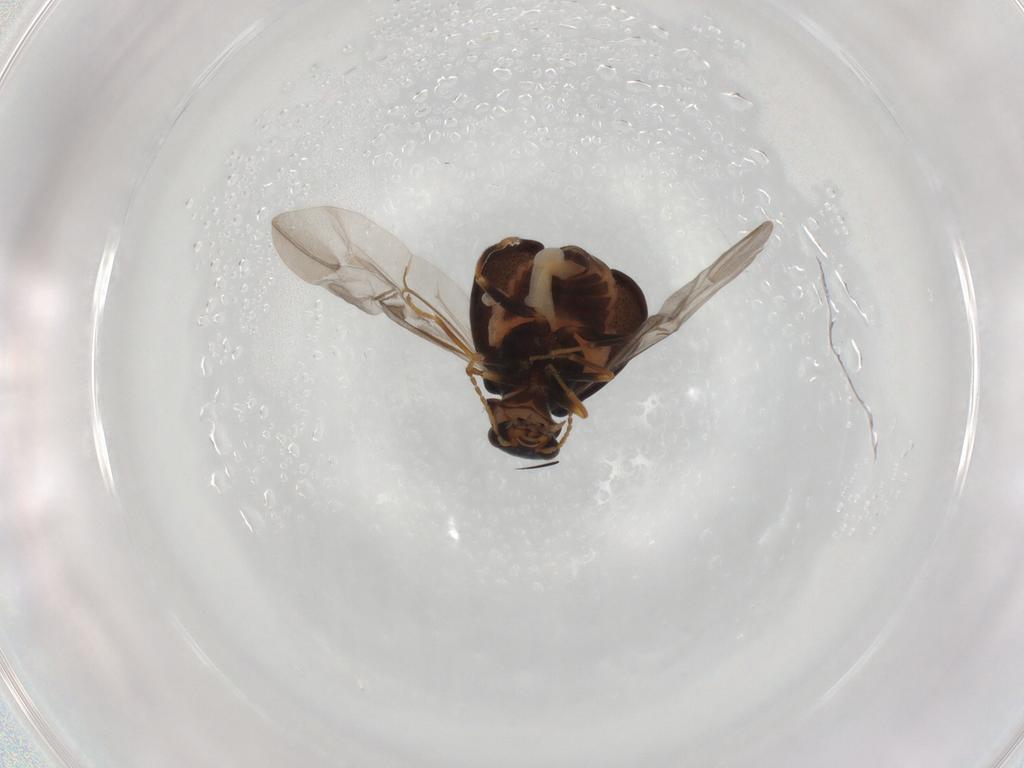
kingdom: Animalia
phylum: Arthropoda
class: Insecta
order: Coleoptera
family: Melyridae
